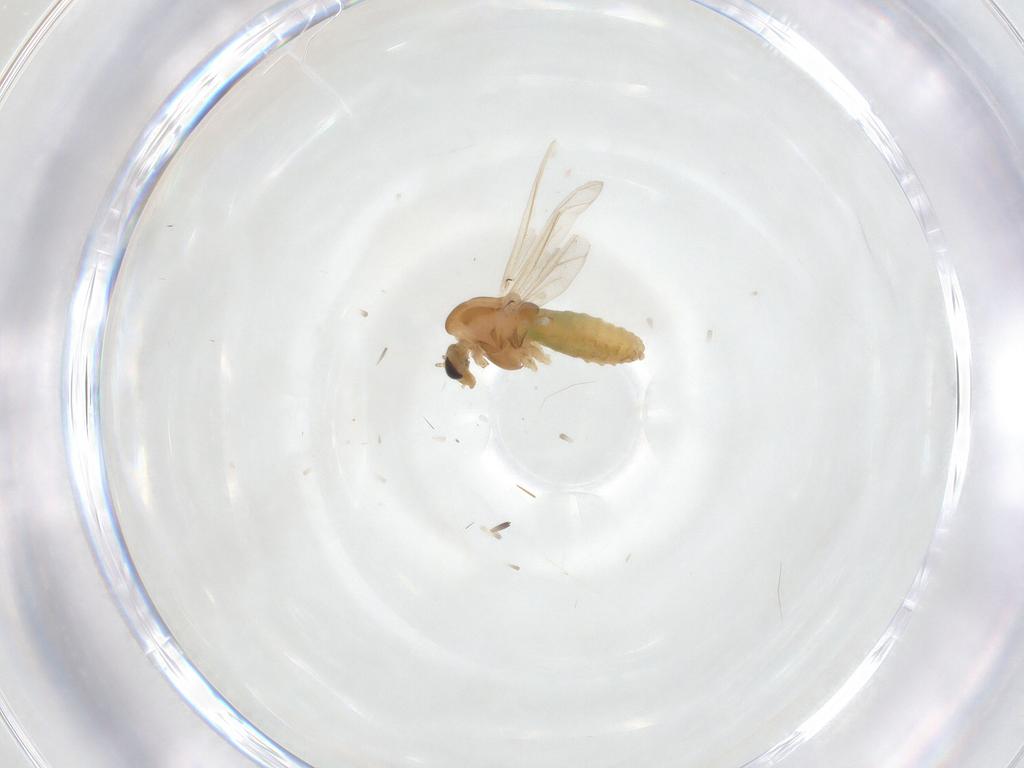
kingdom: Animalia
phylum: Arthropoda
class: Insecta
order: Diptera
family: Chironomidae
